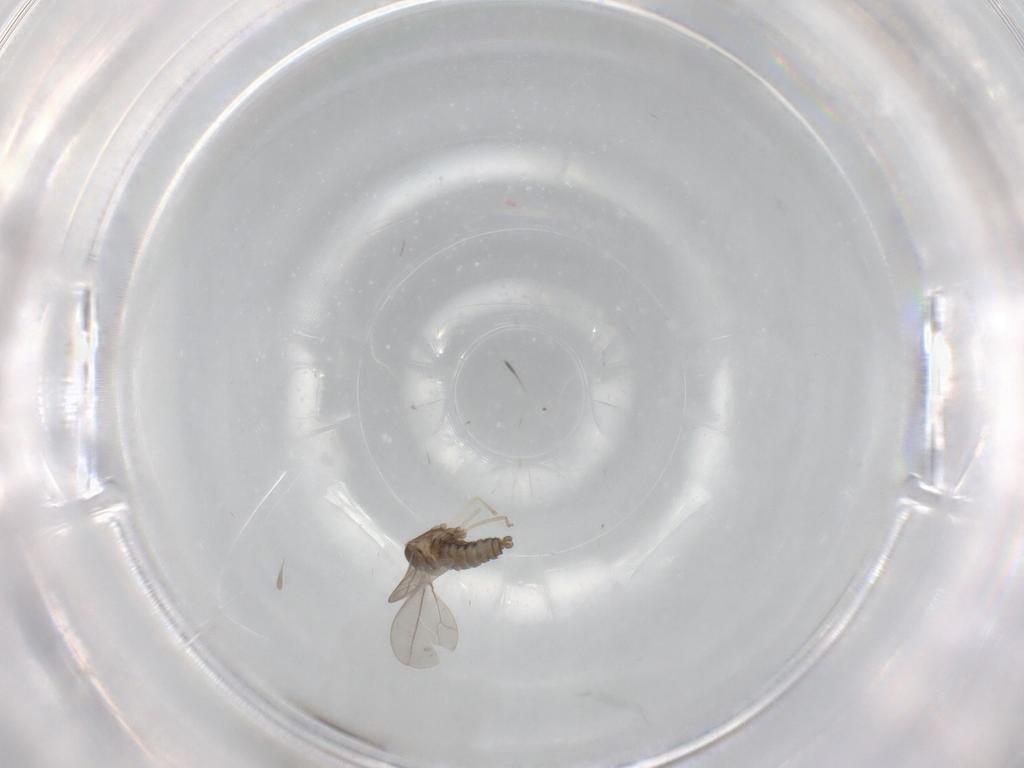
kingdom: Animalia
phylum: Arthropoda
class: Insecta
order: Diptera
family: Cecidomyiidae
